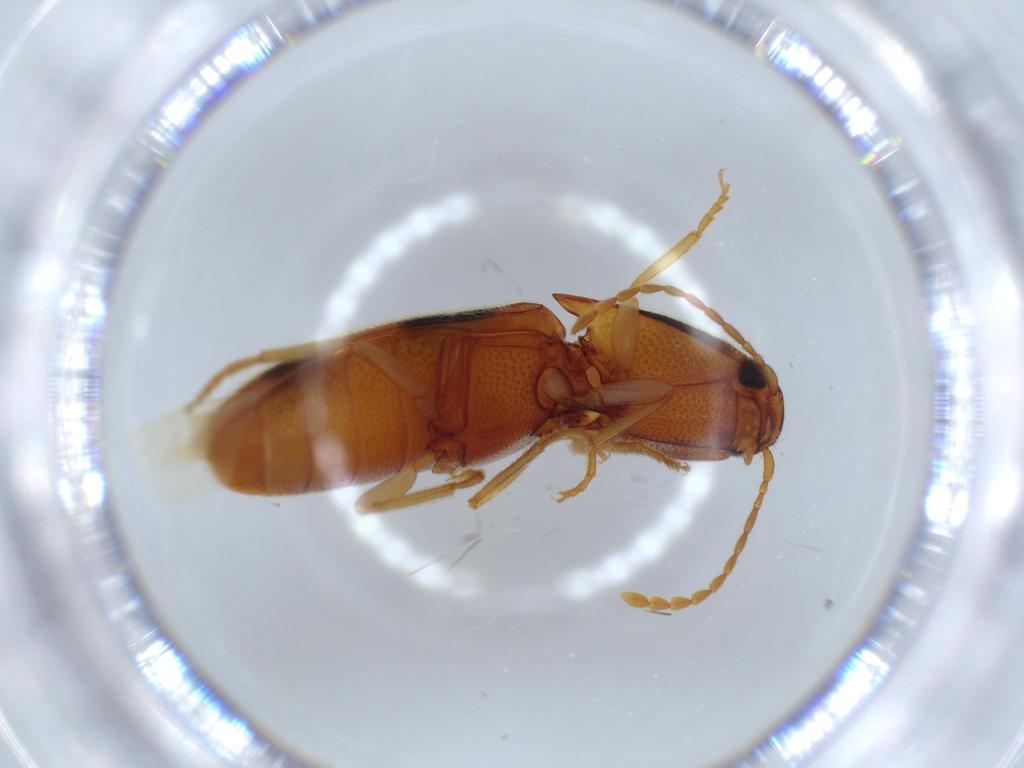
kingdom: Animalia
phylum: Arthropoda
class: Insecta
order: Coleoptera
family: Elateridae
